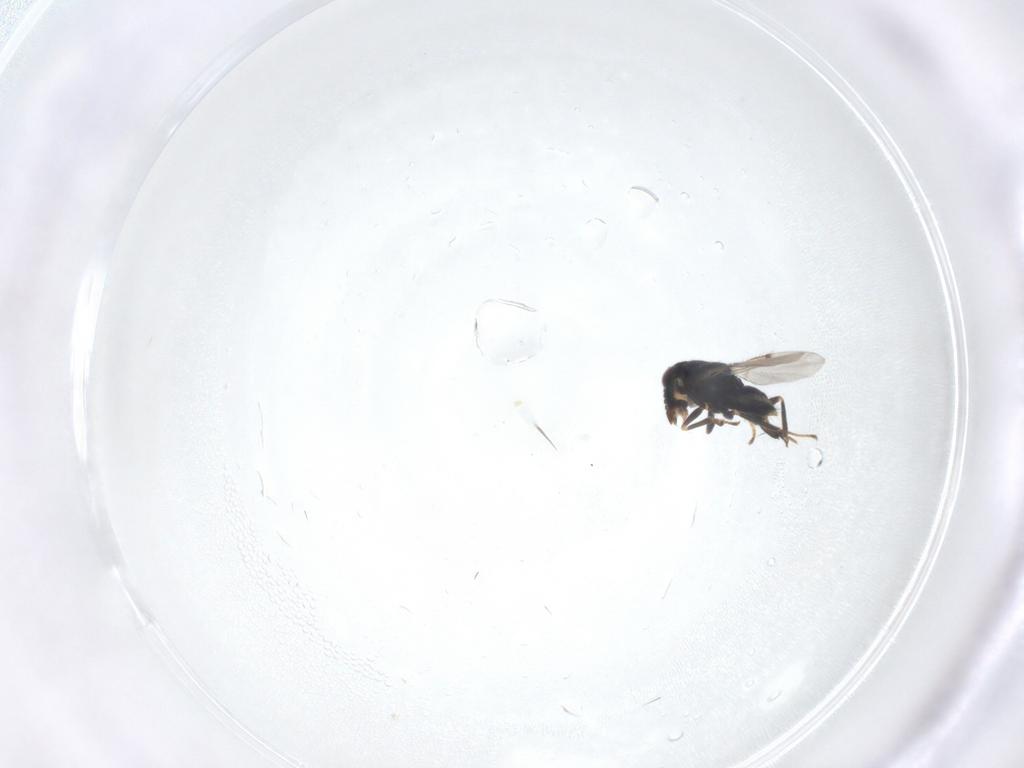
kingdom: Animalia
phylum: Arthropoda
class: Insecta
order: Hymenoptera
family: Encyrtidae
